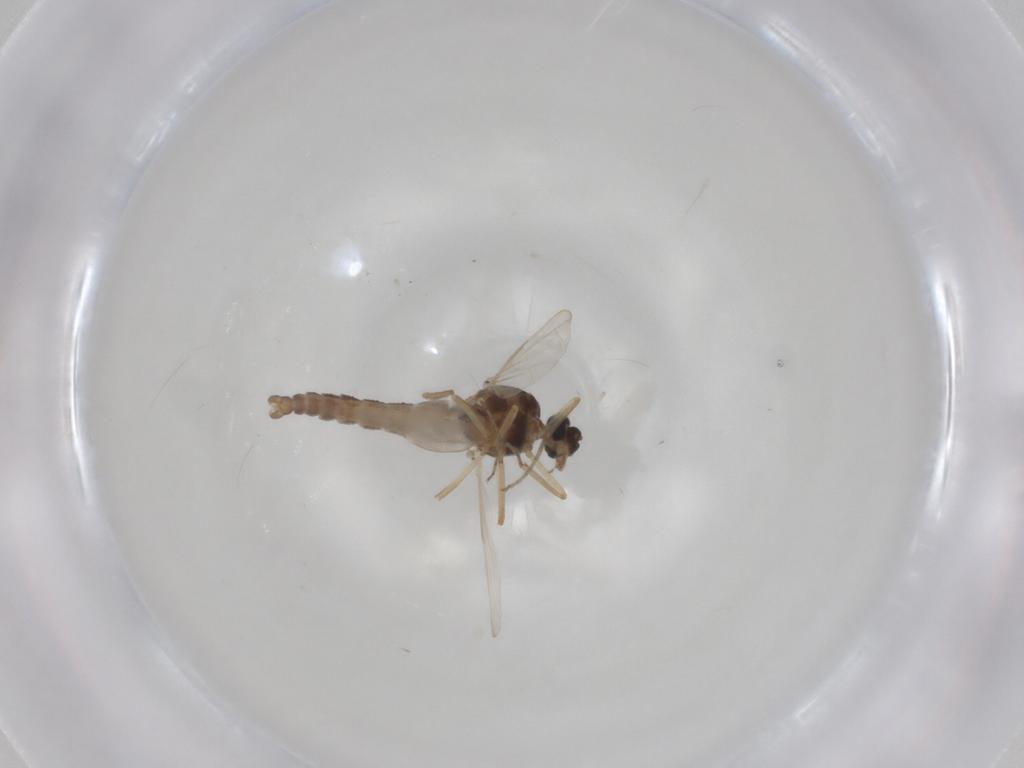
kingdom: Animalia
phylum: Arthropoda
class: Insecta
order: Diptera
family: Ceratopogonidae
